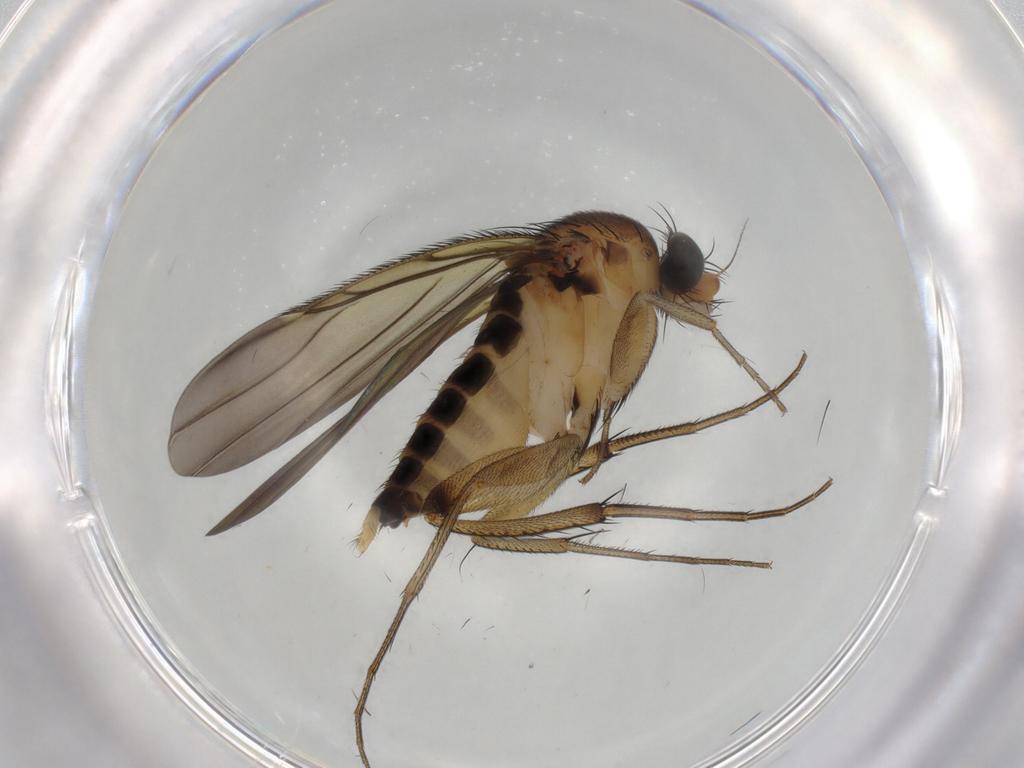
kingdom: Animalia
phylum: Arthropoda
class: Insecta
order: Diptera
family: Phoridae
